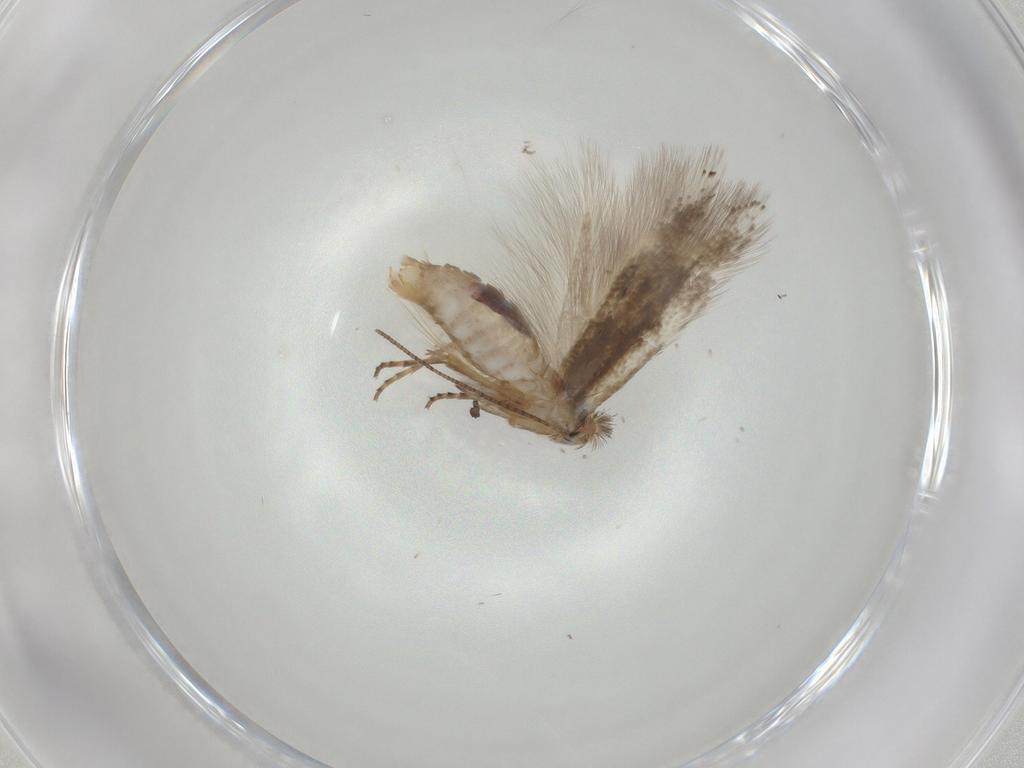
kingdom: Animalia
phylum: Arthropoda
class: Insecta
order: Lepidoptera
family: Bucculatricidae
